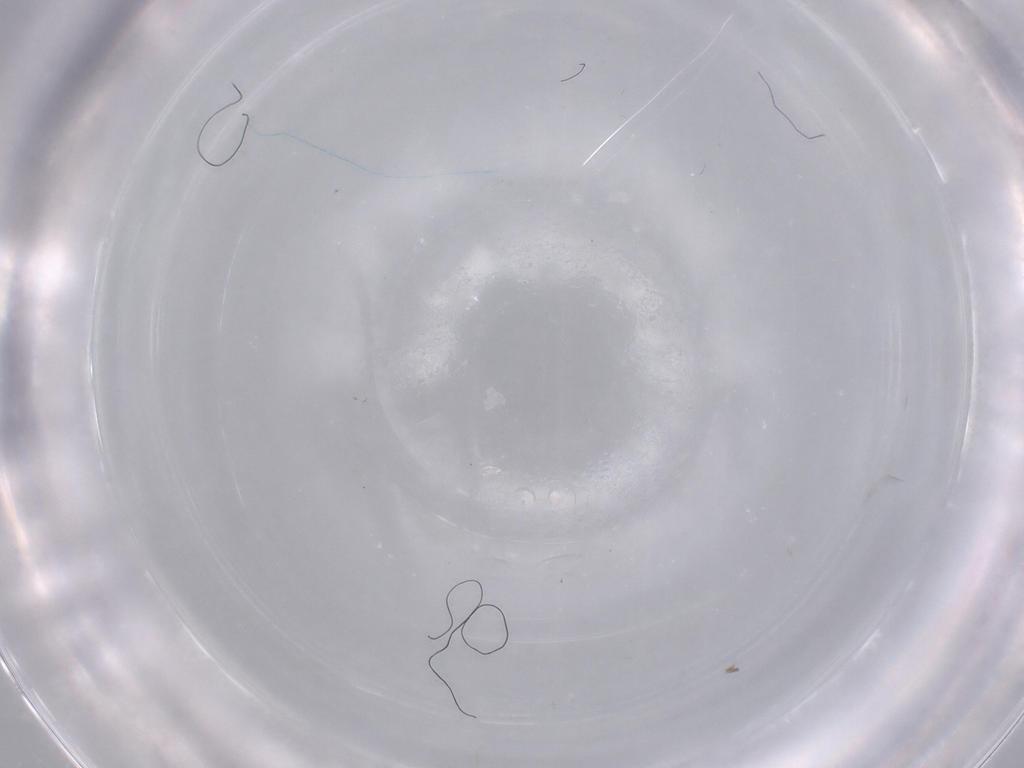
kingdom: Animalia
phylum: Arthropoda
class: Insecta
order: Diptera
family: Chironomidae
